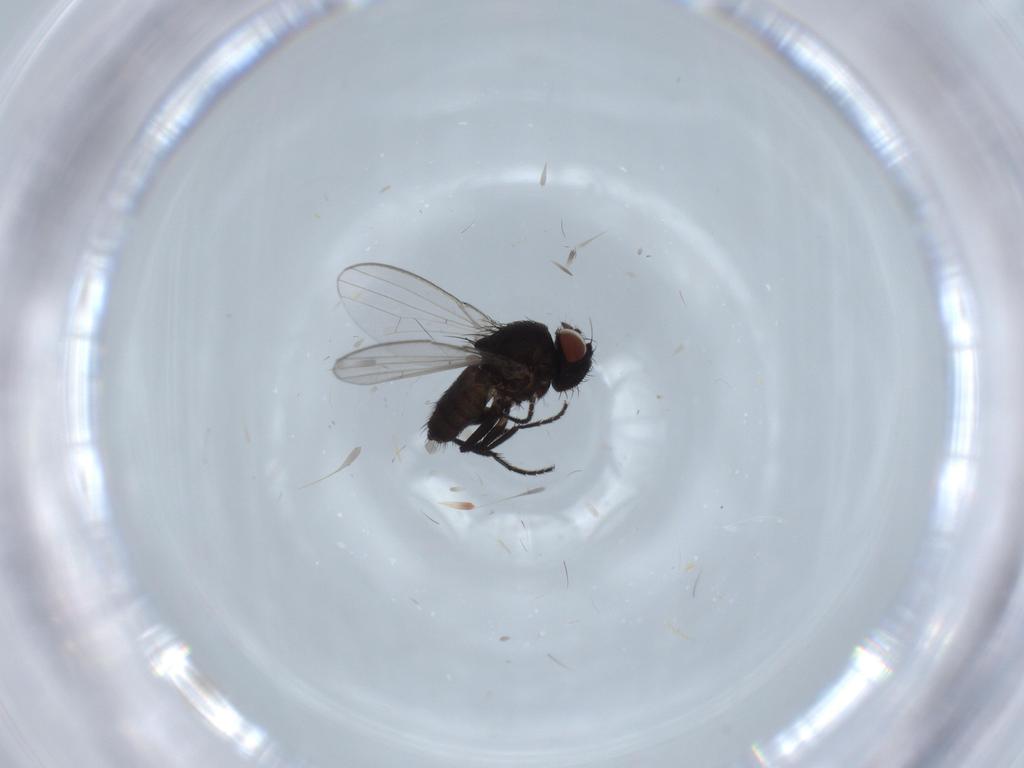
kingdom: Animalia
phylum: Arthropoda
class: Insecta
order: Diptera
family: Milichiidae
